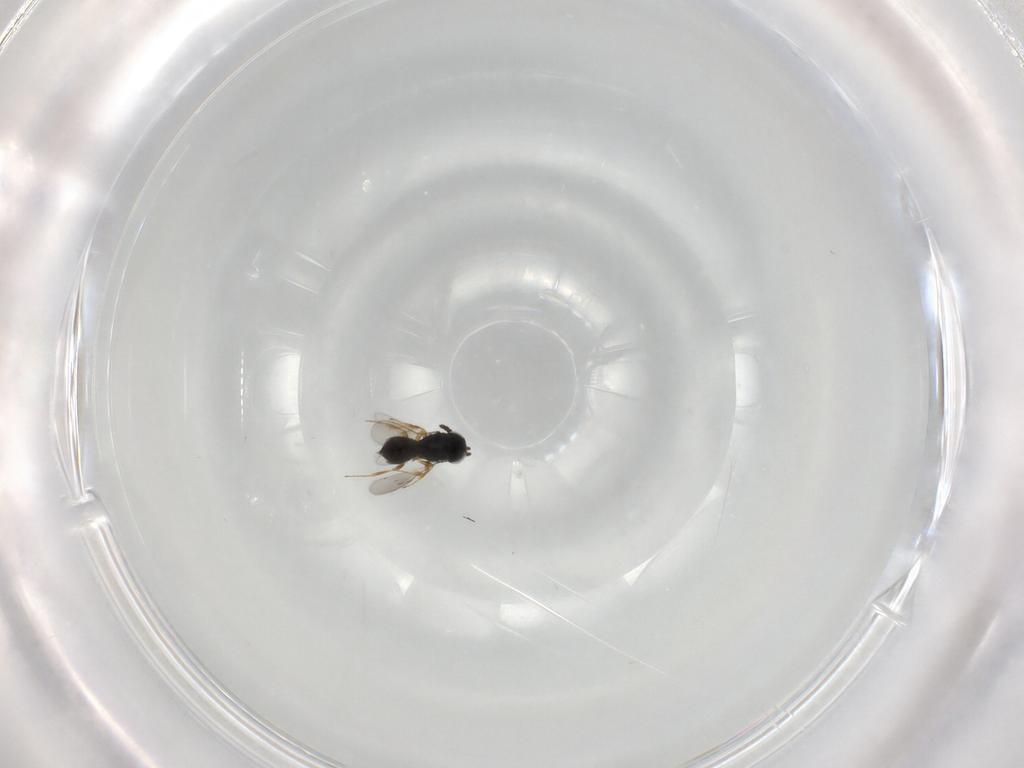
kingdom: Animalia
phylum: Arthropoda
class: Insecta
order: Hymenoptera
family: Scelionidae
